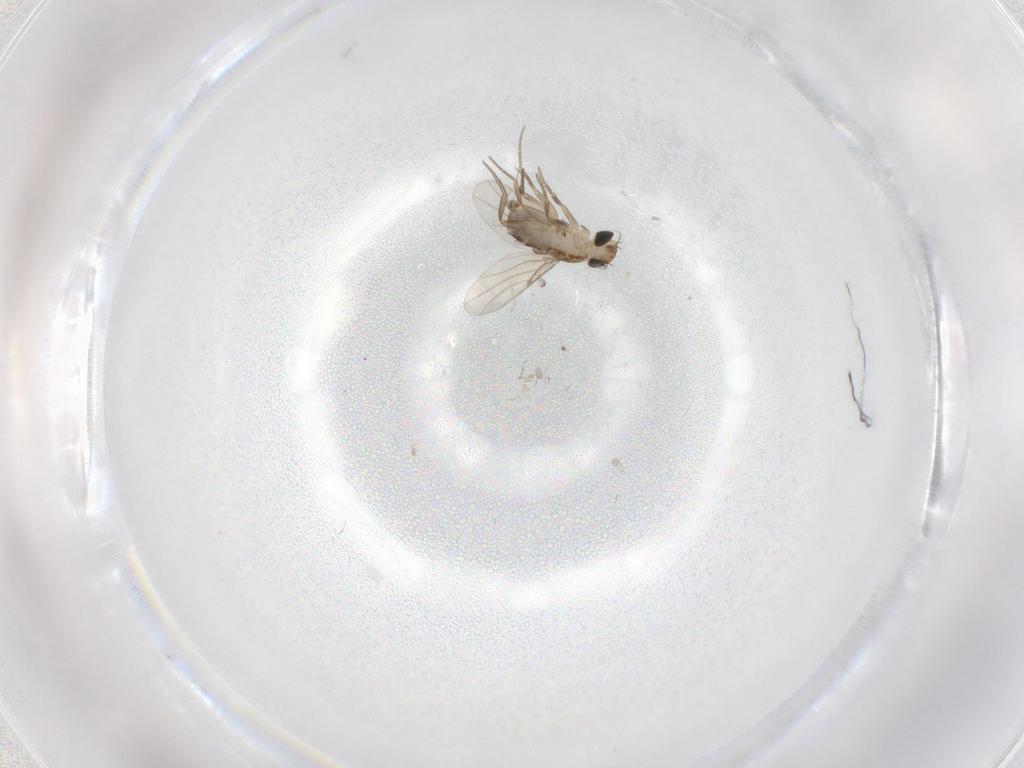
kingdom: Animalia
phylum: Arthropoda
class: Insecta
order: Diptera
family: Phoridae
